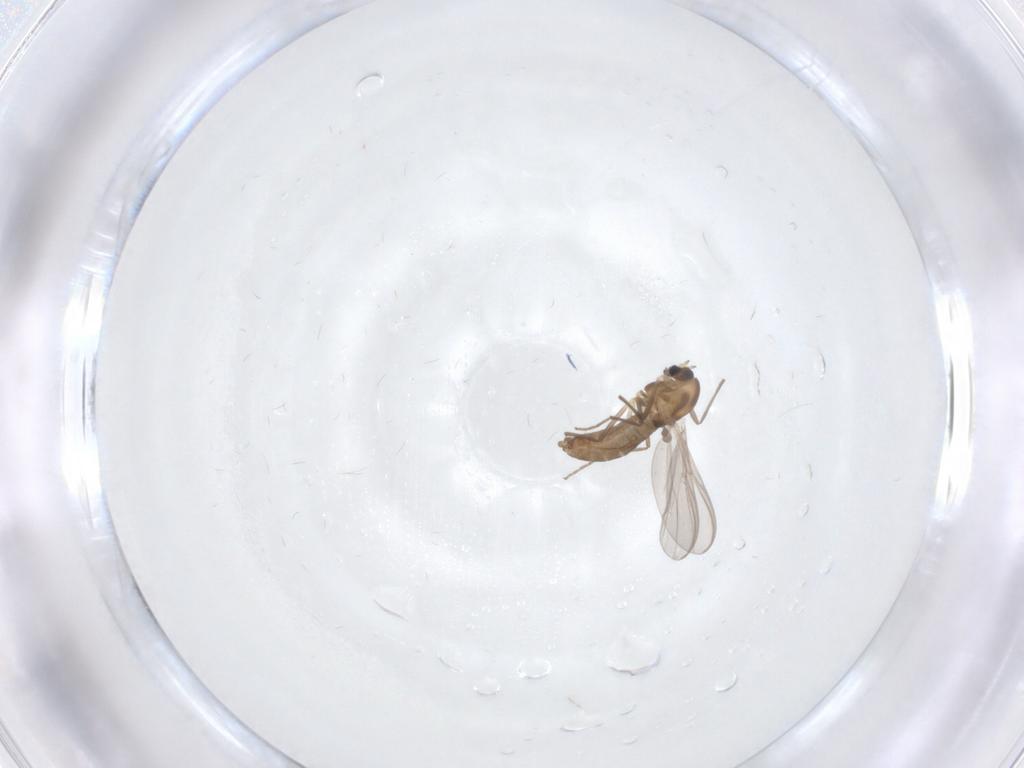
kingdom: Animalia
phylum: Arthropoda
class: Insecta
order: Diptera
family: Chironomidae
